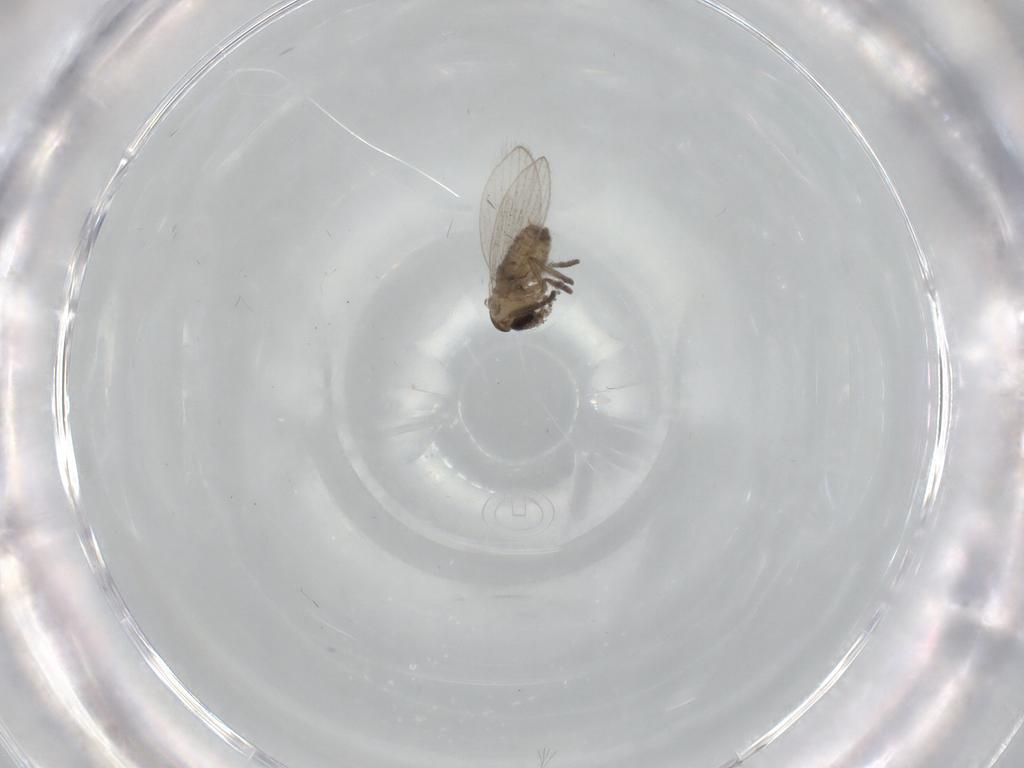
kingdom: Animalia
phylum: Arthropoda
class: Insecta
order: Diptera
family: Psychodidae
